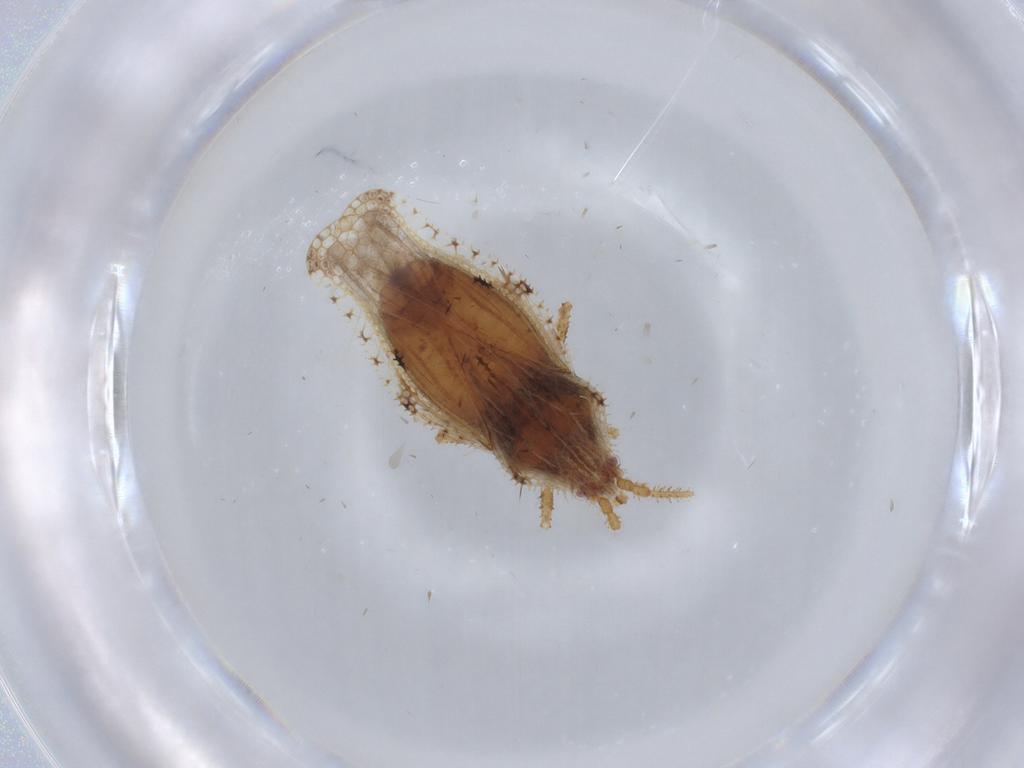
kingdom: Animalia
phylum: Arthropoda
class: Insecta
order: Hemiptera
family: Tingidae
